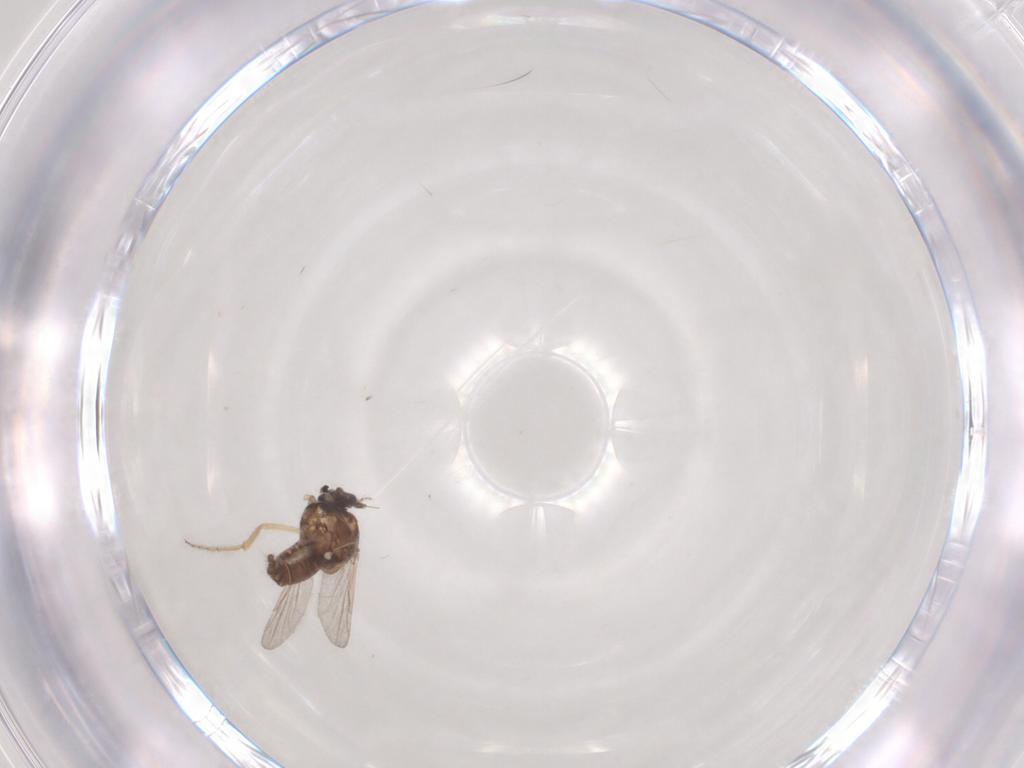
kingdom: Animalia
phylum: Arthropoda
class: Insecta
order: Diptera
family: Ceratopogonidae
